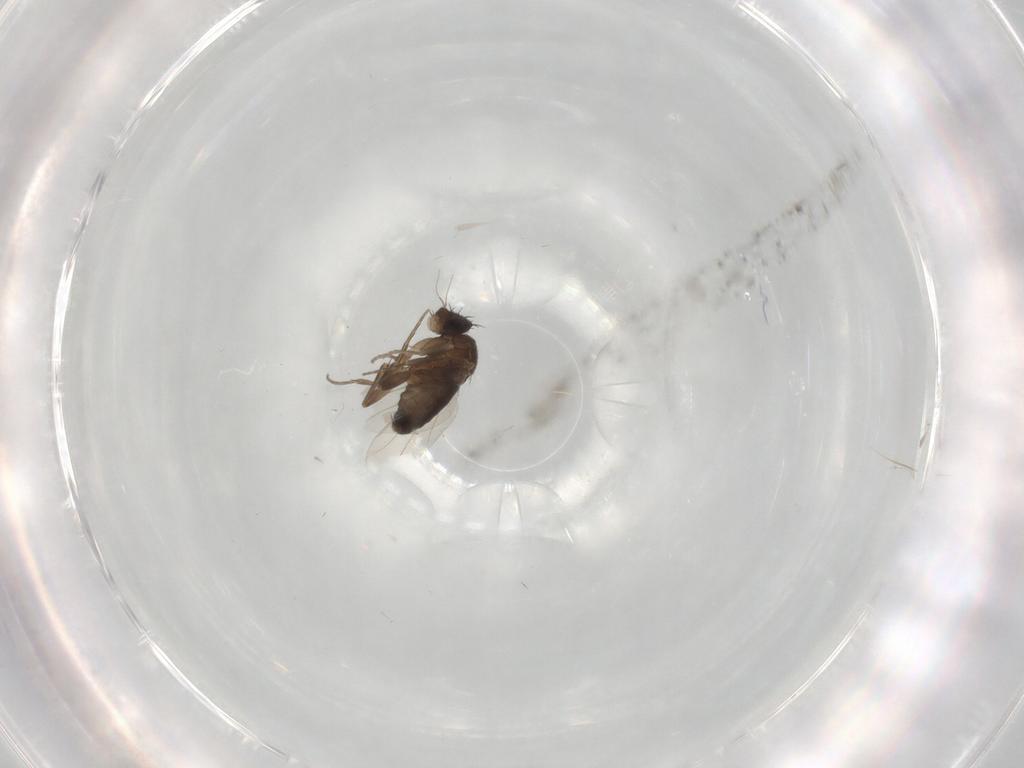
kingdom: Animalia
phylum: Arthropoda
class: Insecta
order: Diptera
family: Phoridae
